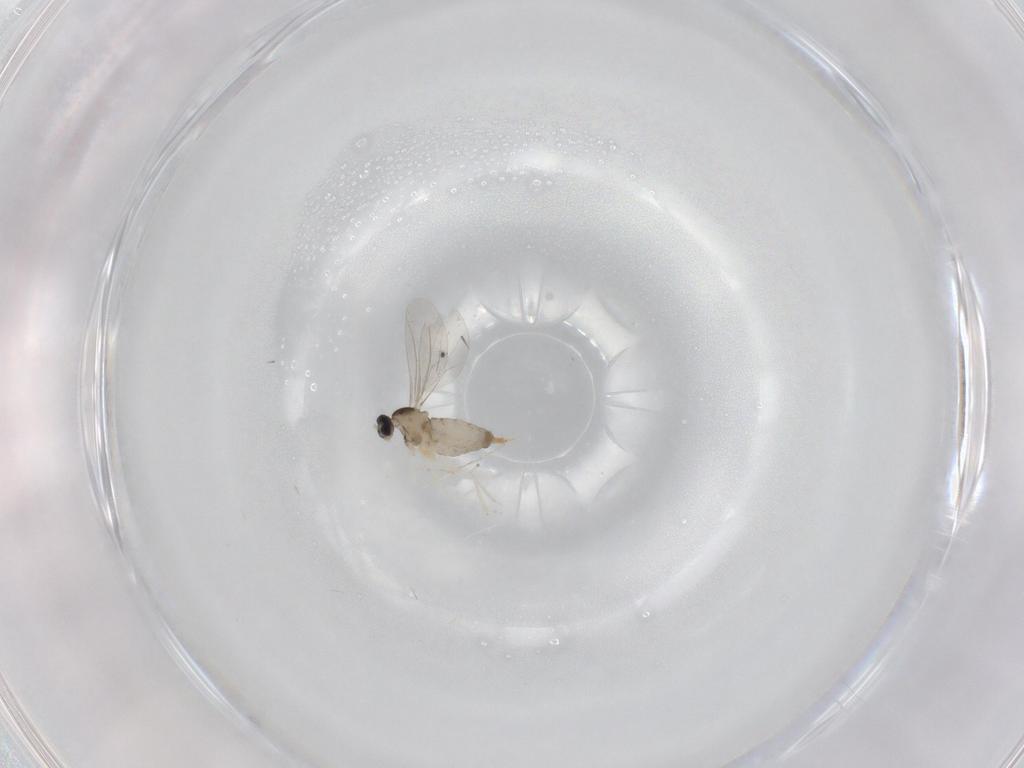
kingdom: Animalia
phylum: Arthropoda
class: Insecta
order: Diptera
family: Cecidomyiidae
